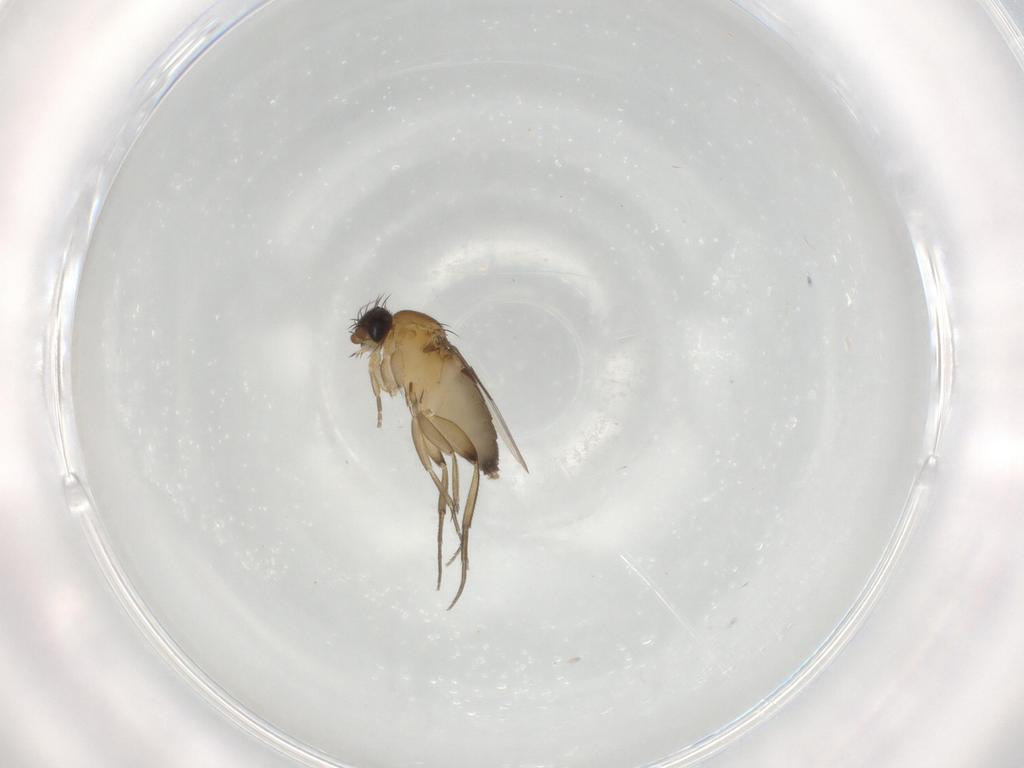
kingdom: Animalia
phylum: Arthropoda
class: Insecta
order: Diptera
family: Phoridae
